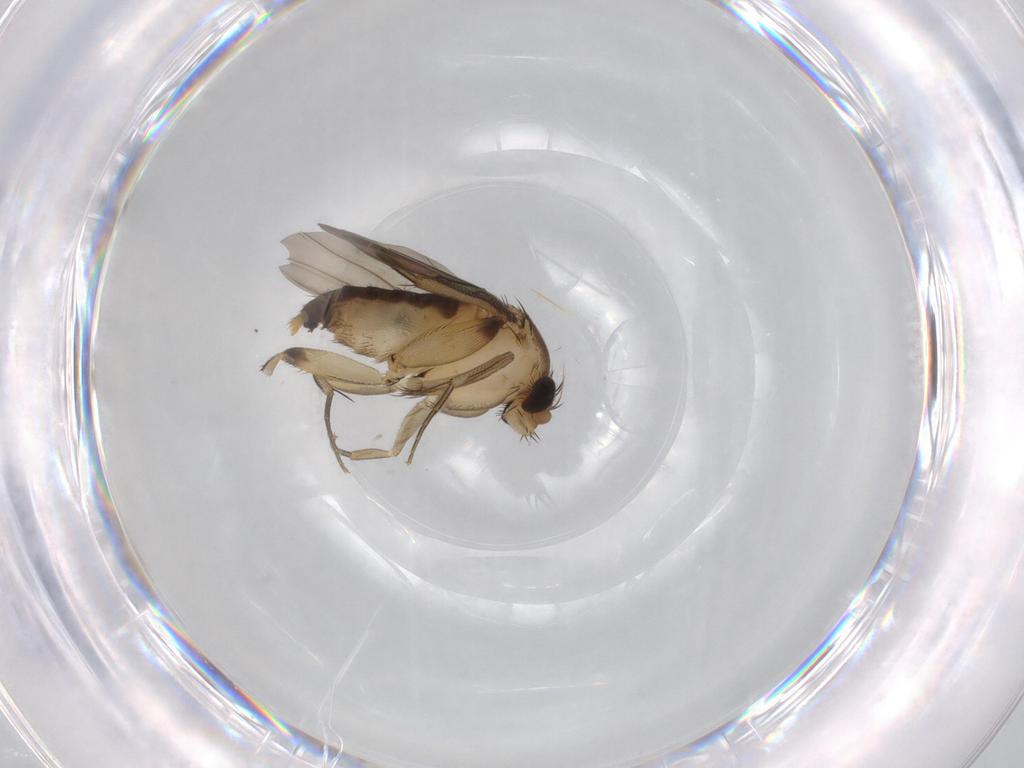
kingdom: Animalia
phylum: Arthropoda
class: Insecta
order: Diptera
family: Phoridae
